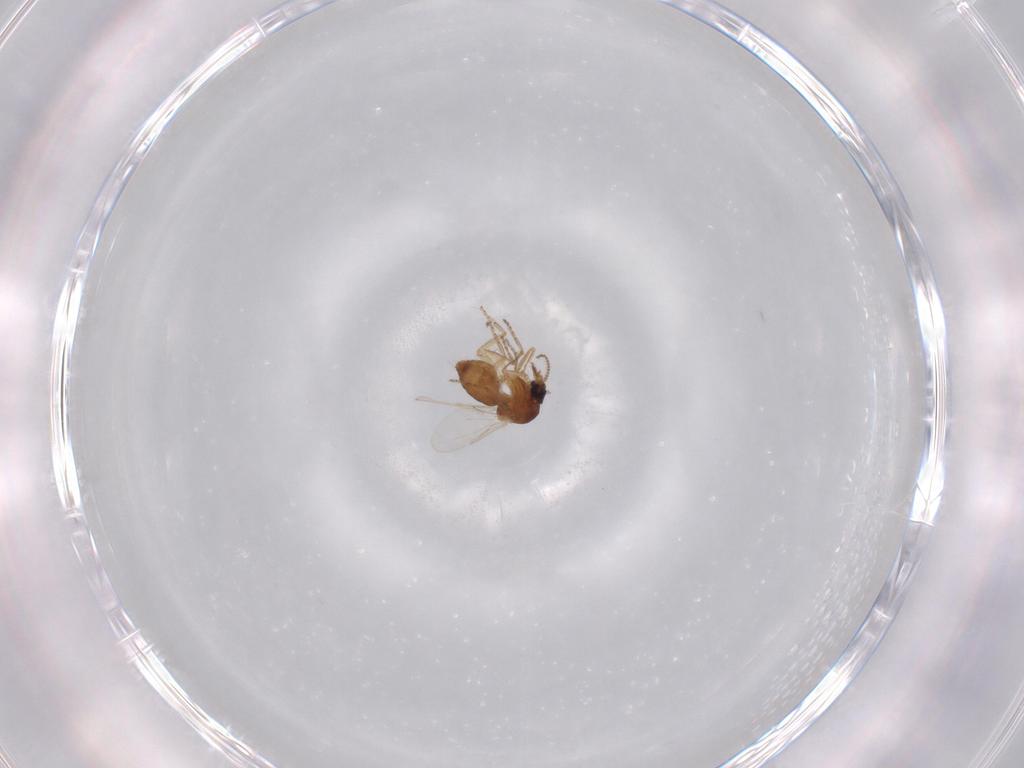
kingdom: Animalia
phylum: Arthropoda
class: Insecta
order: Diptera
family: Ceratopogonidae
